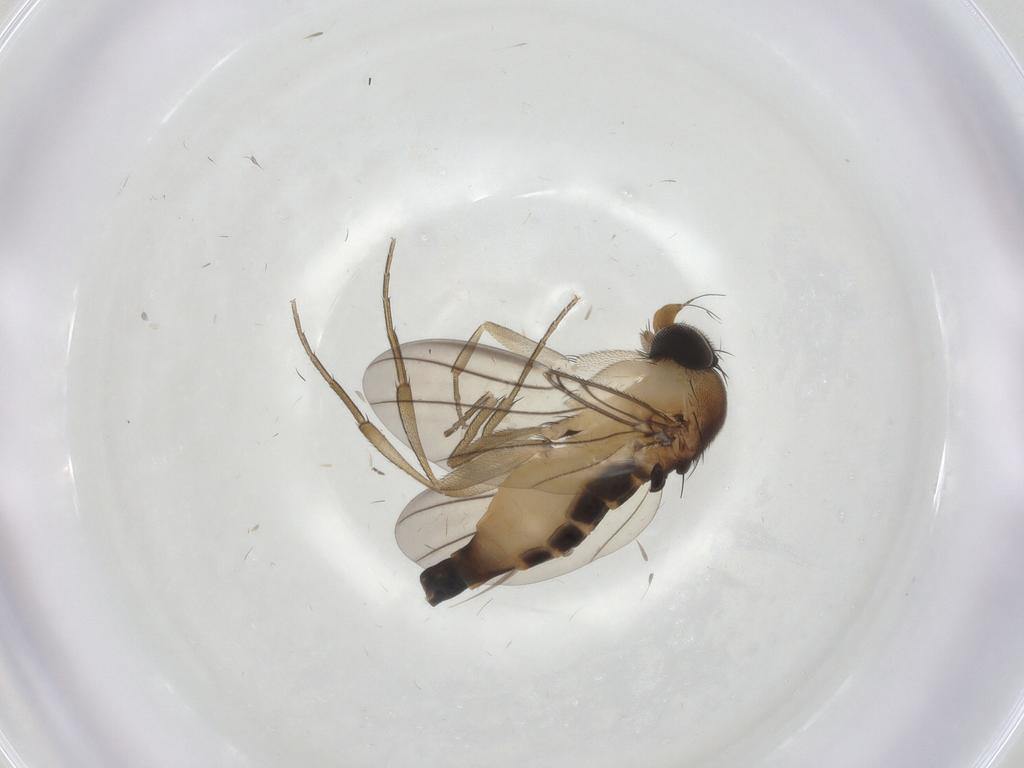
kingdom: Animalia
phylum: Arthropoda
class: Insecta
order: Diptera
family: Phoridae
